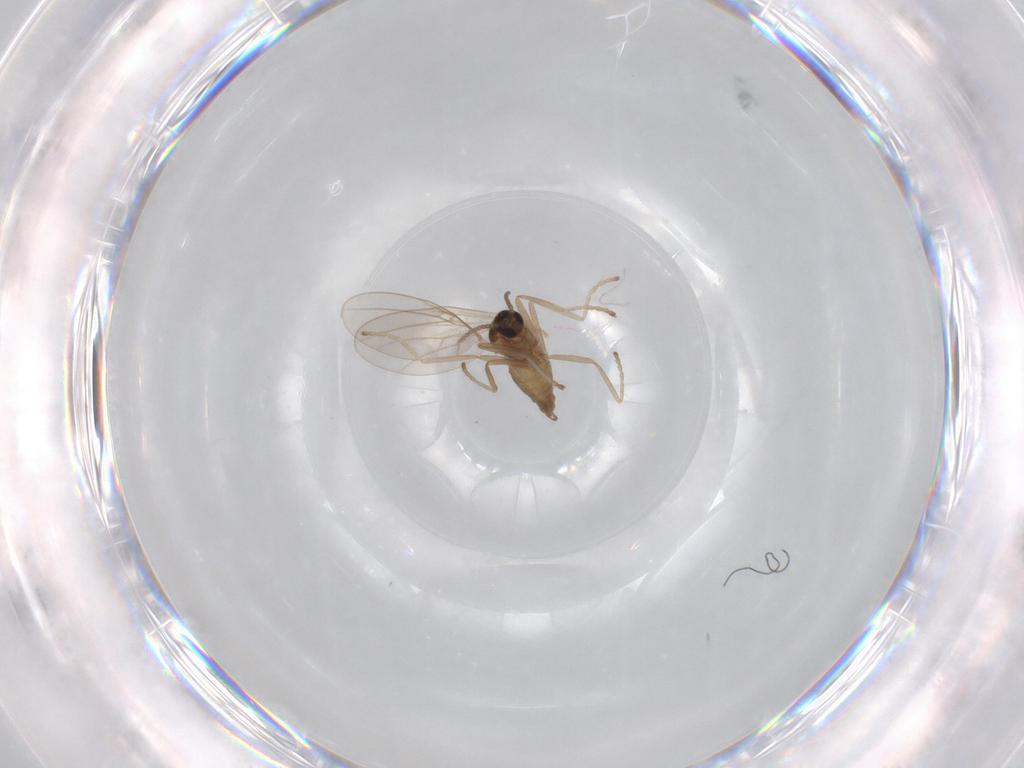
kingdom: Animalia
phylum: Arthropoda
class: Insecta
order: Diptera
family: Cecidomyiidae
